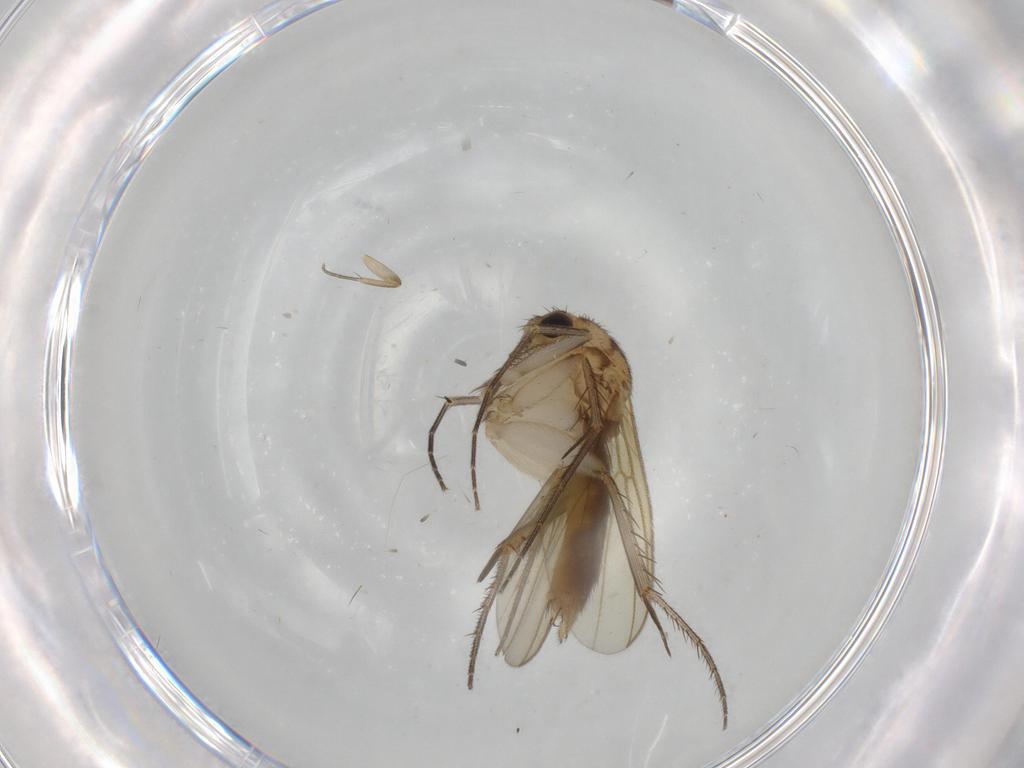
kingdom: Animalia
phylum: Arthropoda
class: Insecta
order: Diptera
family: Mycetophilidae
